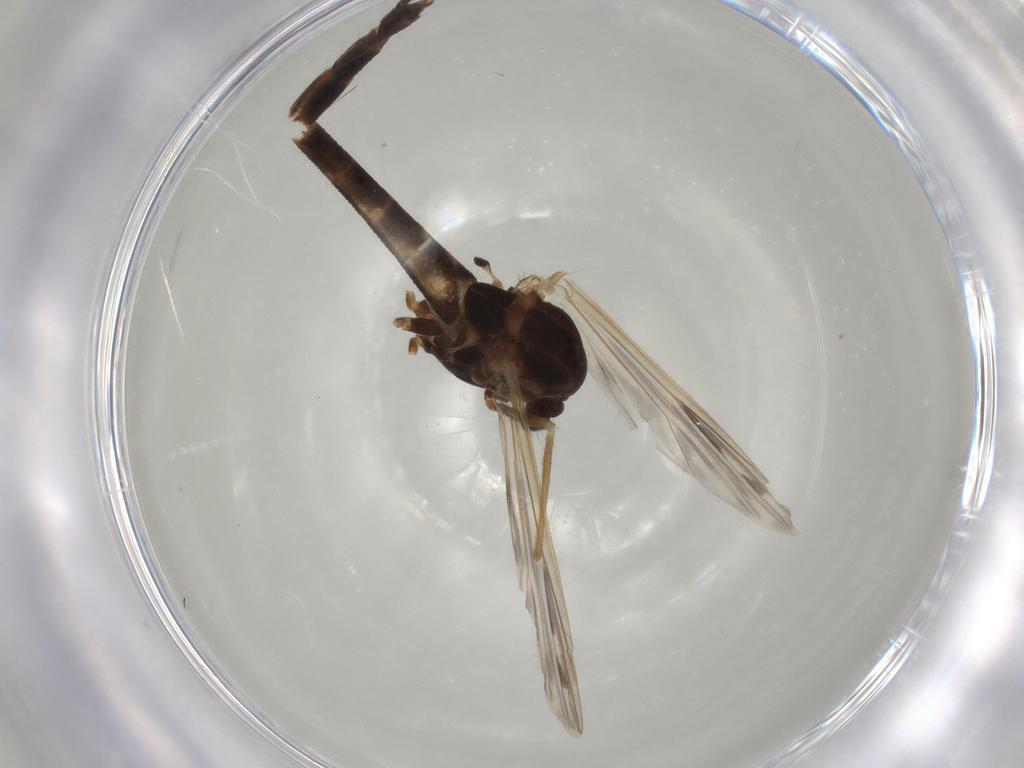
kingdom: Animalia
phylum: Arthropoda
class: Insecta
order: Diptera
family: Chironomidae
